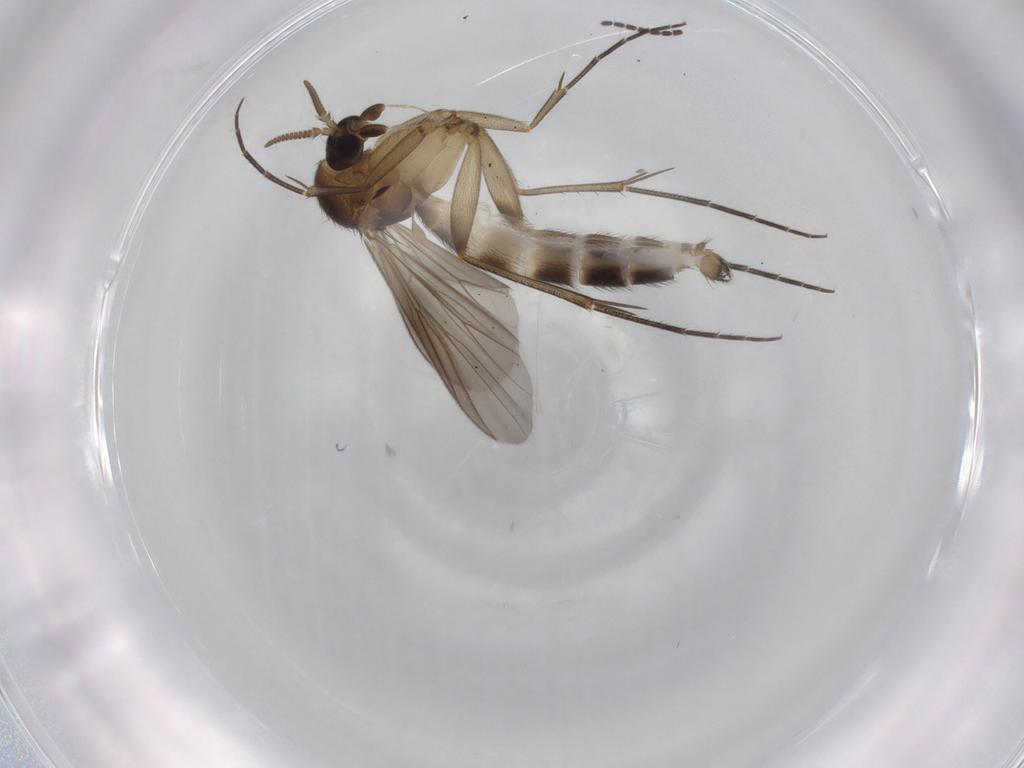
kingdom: Animalia
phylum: Arthropoda
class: Insecta
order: Diptera
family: Mycetophilidae
